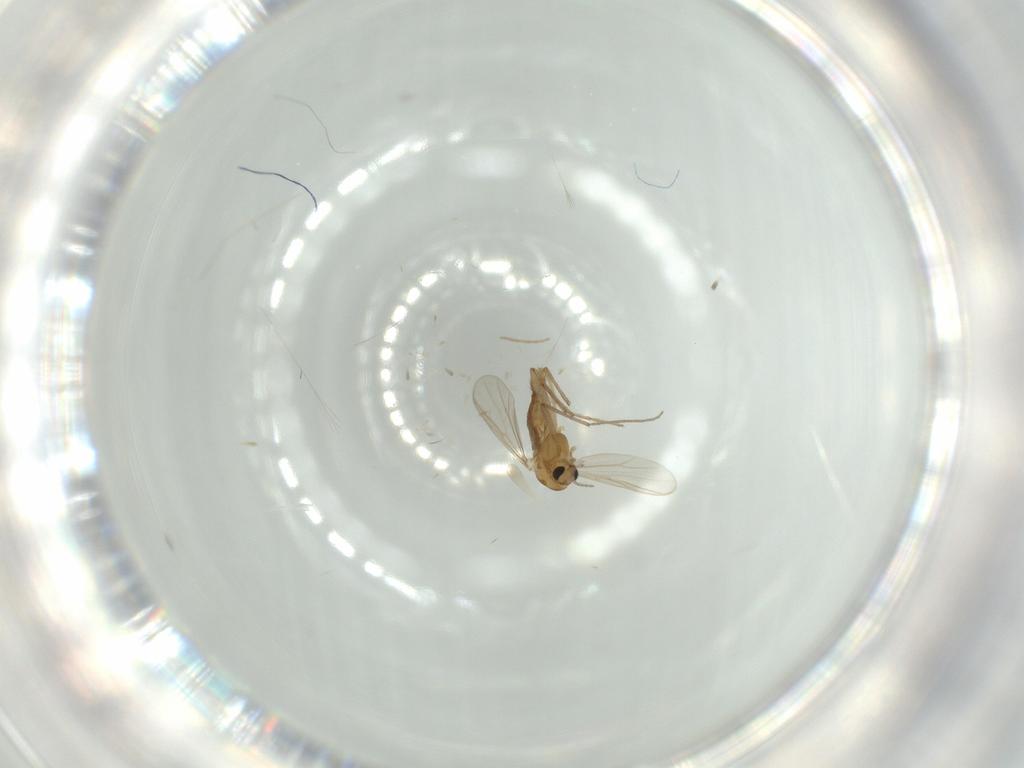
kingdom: Animalia
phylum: Arthropoda
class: Insecta
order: Diptera
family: Chironomidae
